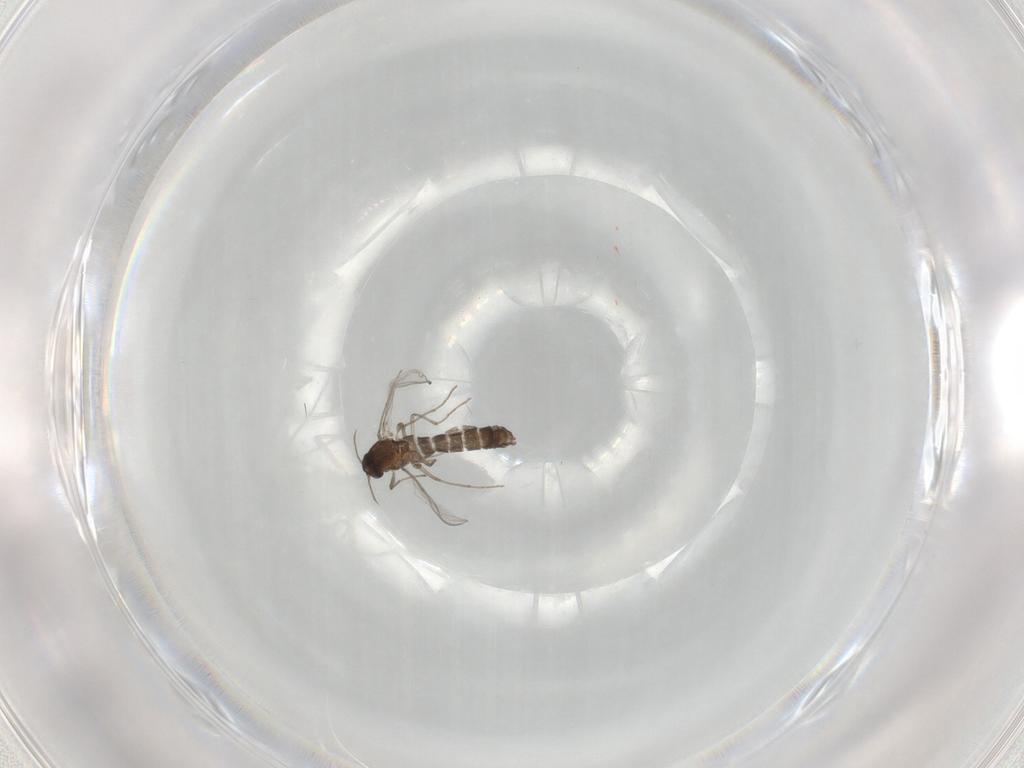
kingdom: Animalia
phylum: Arthropoda
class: Insecta
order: Diptera
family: Chironomidae
